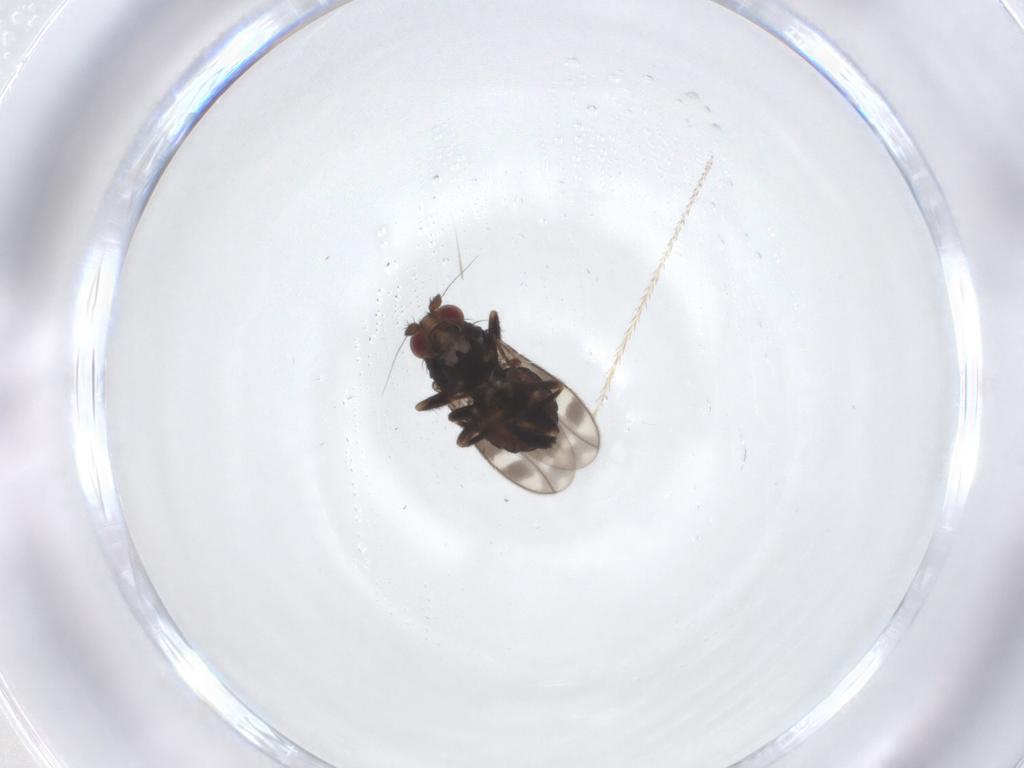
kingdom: Animalia
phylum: Arthropoda
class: Insecta
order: Diptera
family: Sphaeroceridae
